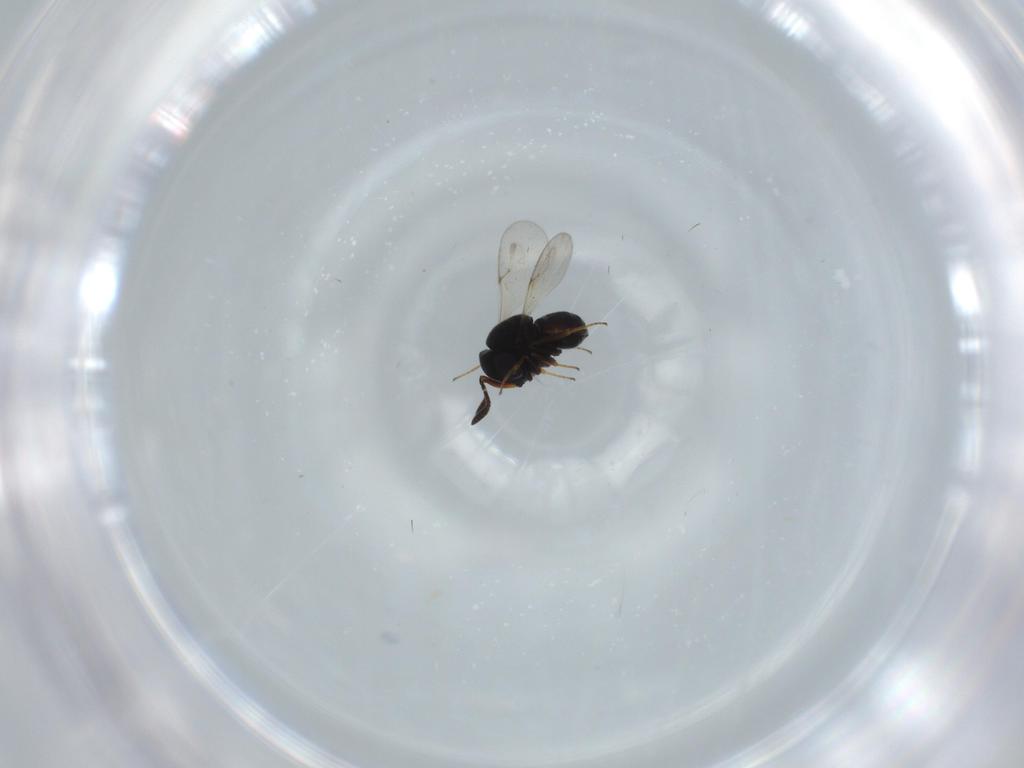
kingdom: Animalia
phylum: Arthropoda
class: Insecta
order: Hymenoptera
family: Scelionidae
